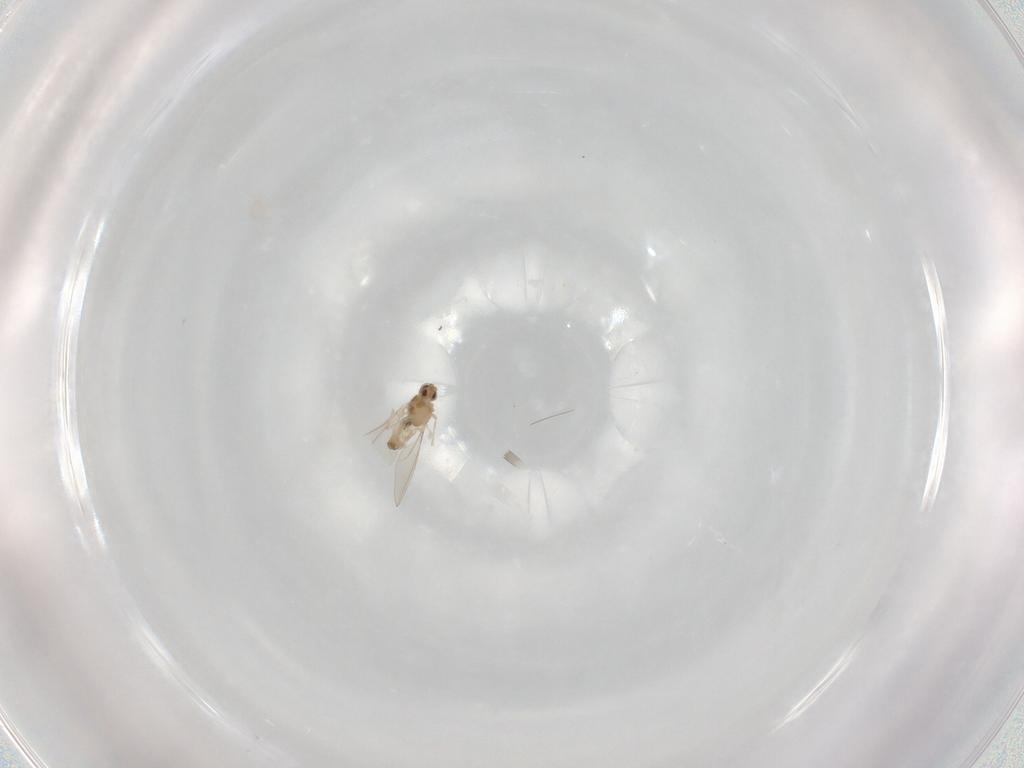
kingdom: Animalia
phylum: Arthropoda
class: Insecta
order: Diptera
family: Cecidomyiidae
